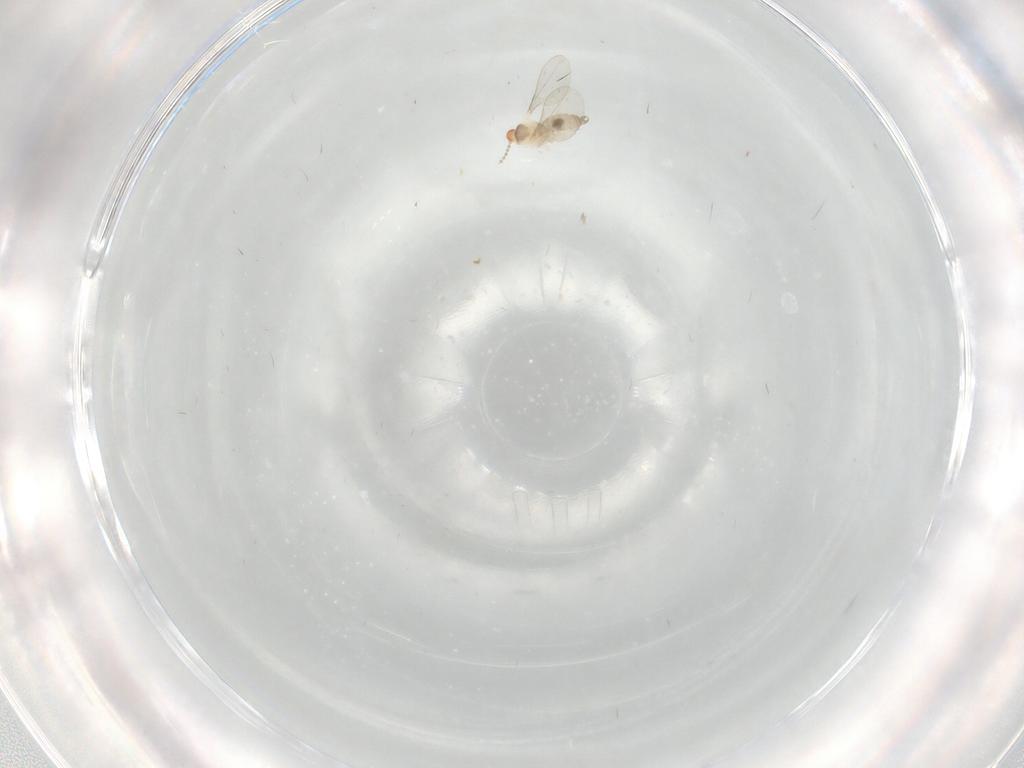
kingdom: Animalia
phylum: Arthropoda
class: Insecta
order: Diptera
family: Cecidomyiidae
